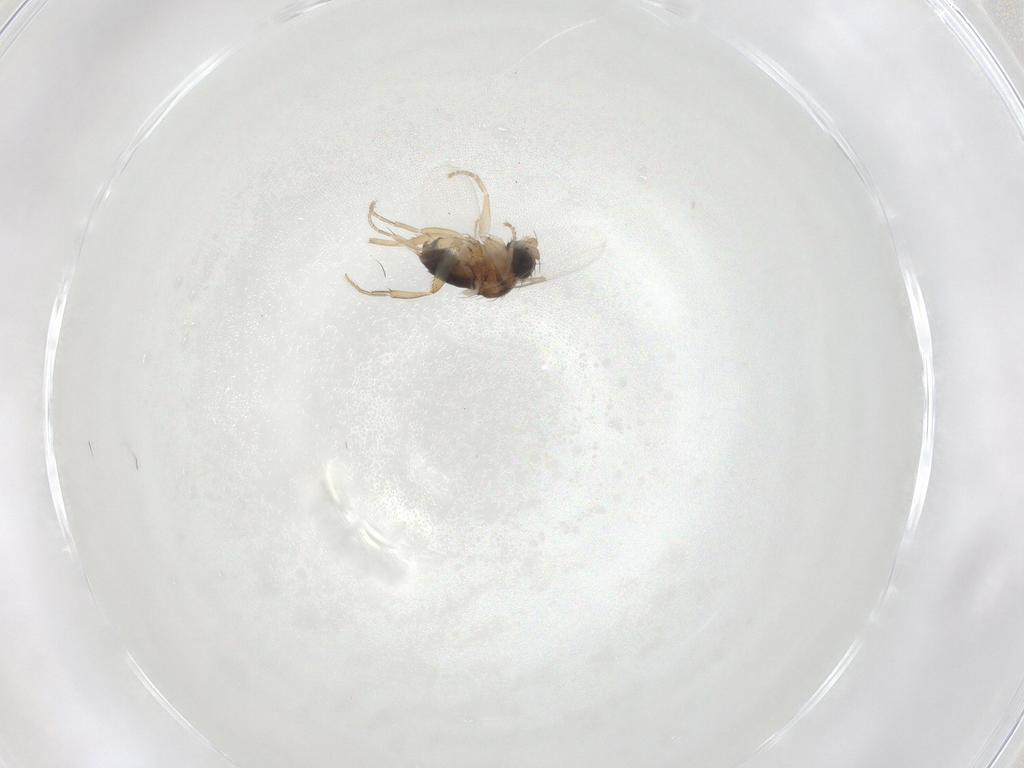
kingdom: Animalia
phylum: Arthropoda
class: Insecta
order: Diptera
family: Phoridae
